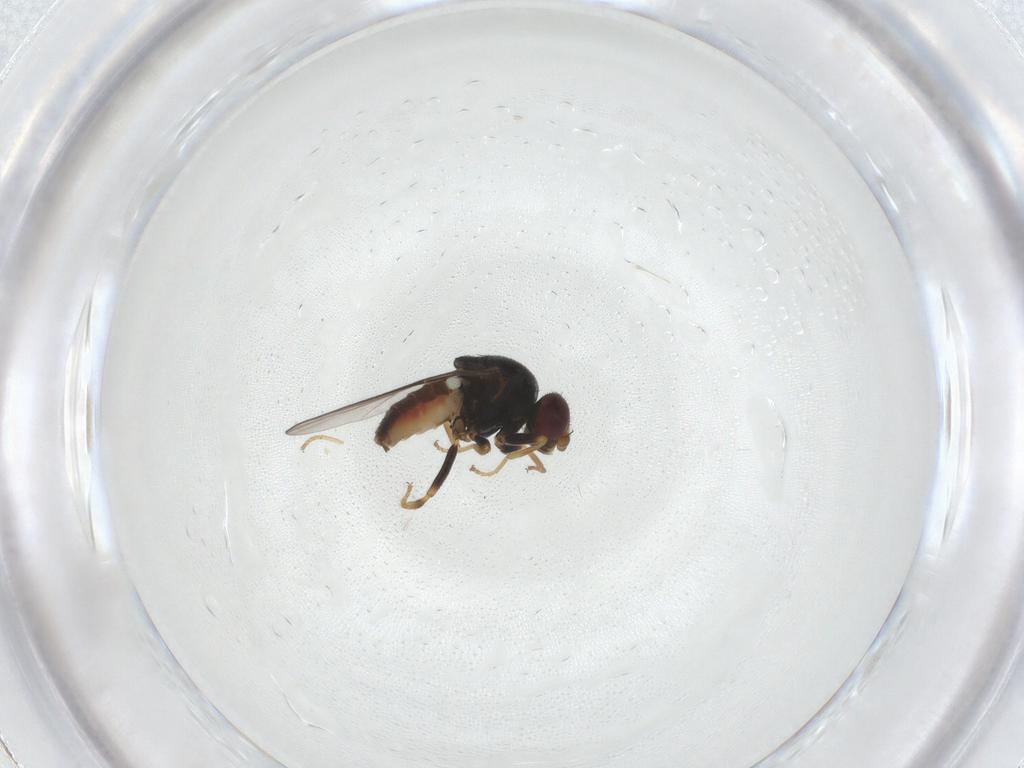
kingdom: Animalia
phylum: Arthropoda
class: Insecta
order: Diptera
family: Chloropidae
